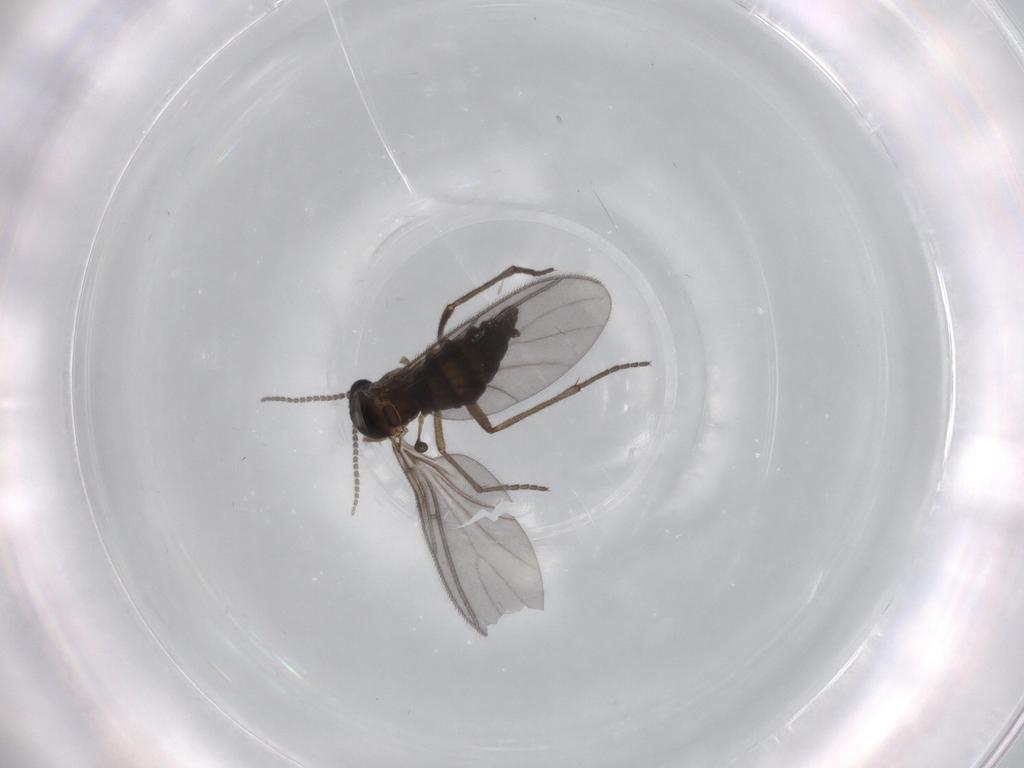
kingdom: Animalia
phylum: Arthropoda
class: Insecta
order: Diptera
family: Sciaridae
